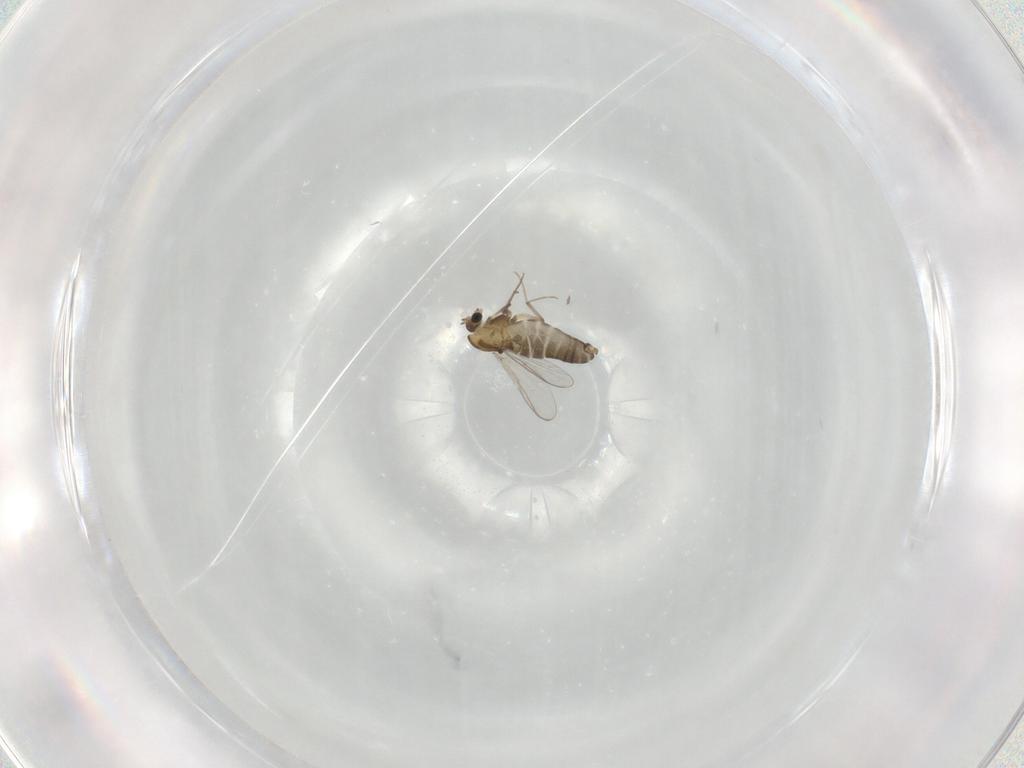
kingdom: Animalia
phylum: Arthropoda
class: Insecta
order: Diptera
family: Chironomidae
